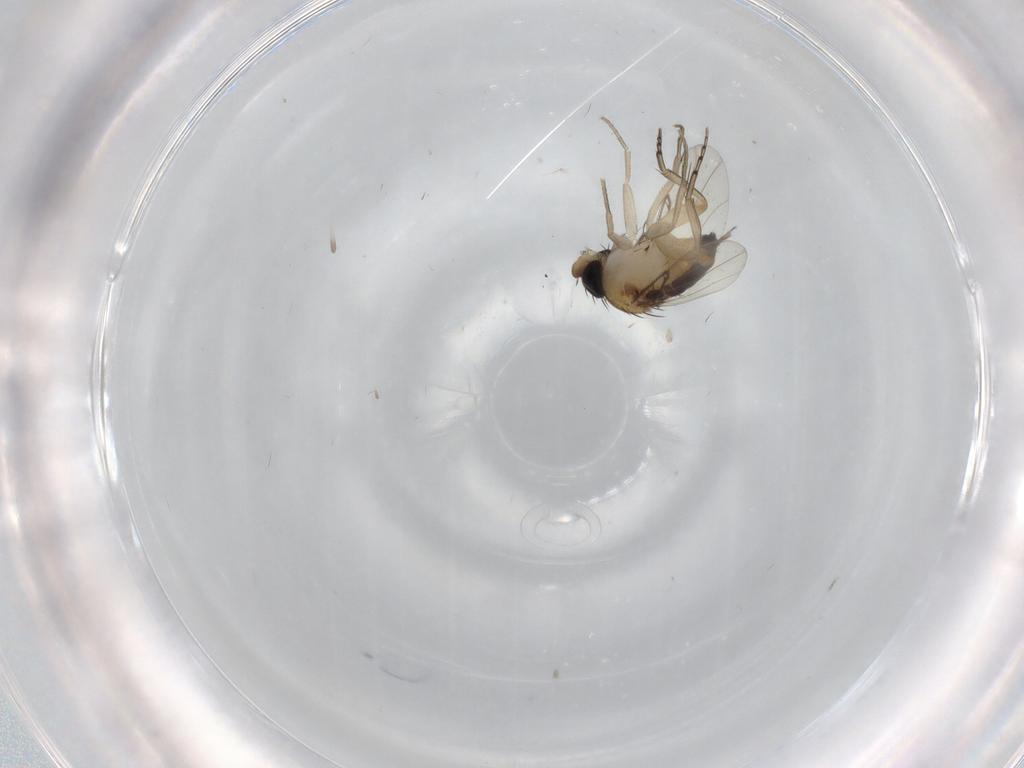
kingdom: Animalia
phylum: Arthropoda
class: Insecta
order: Diptera
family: Phoridae
